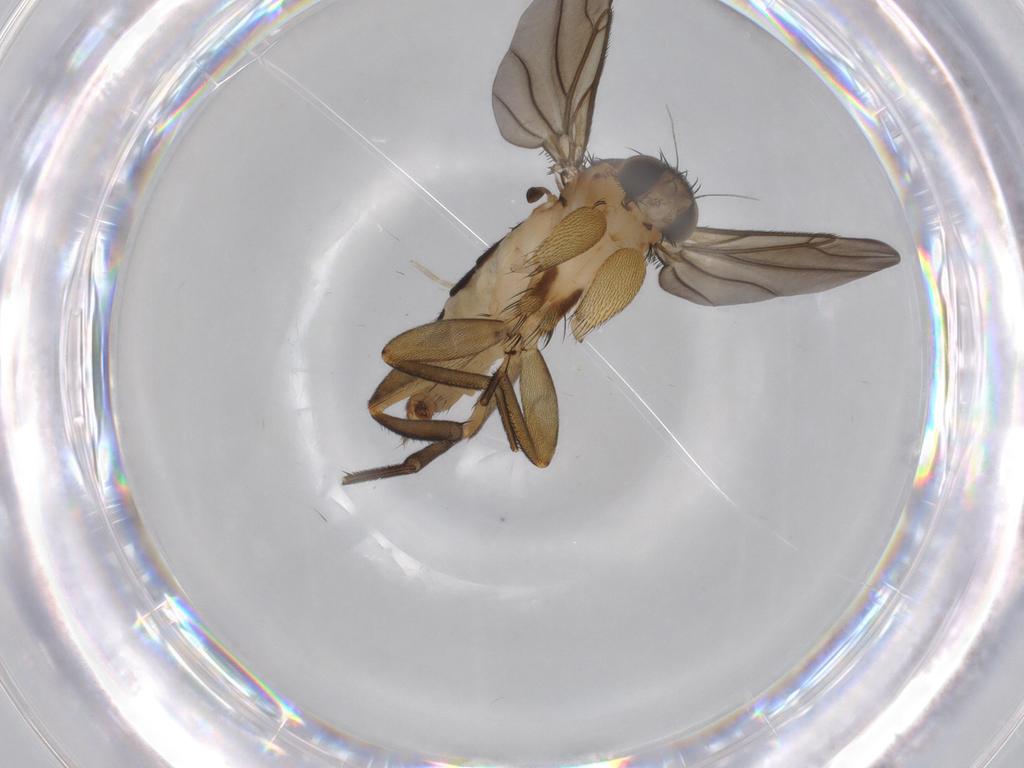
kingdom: Animalia
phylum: Arthropoda
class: Insecta
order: Diptera
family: Phoridae
